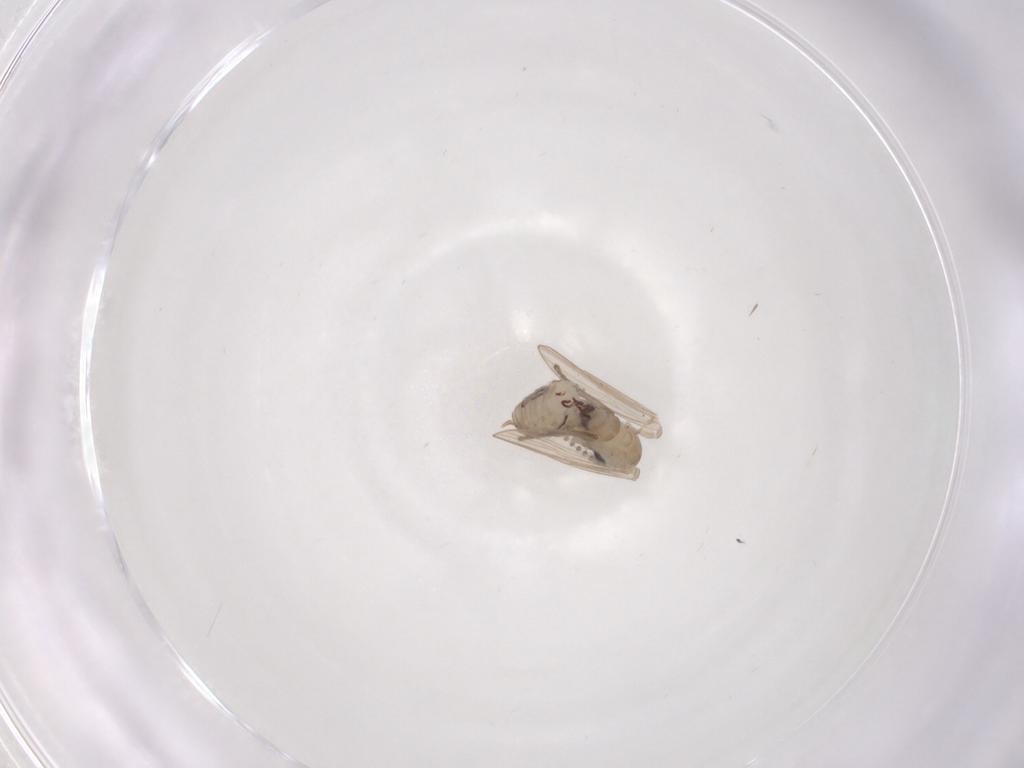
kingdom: Animalia
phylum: Arthropoda
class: Insecta
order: Diptera
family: Psychodidae
